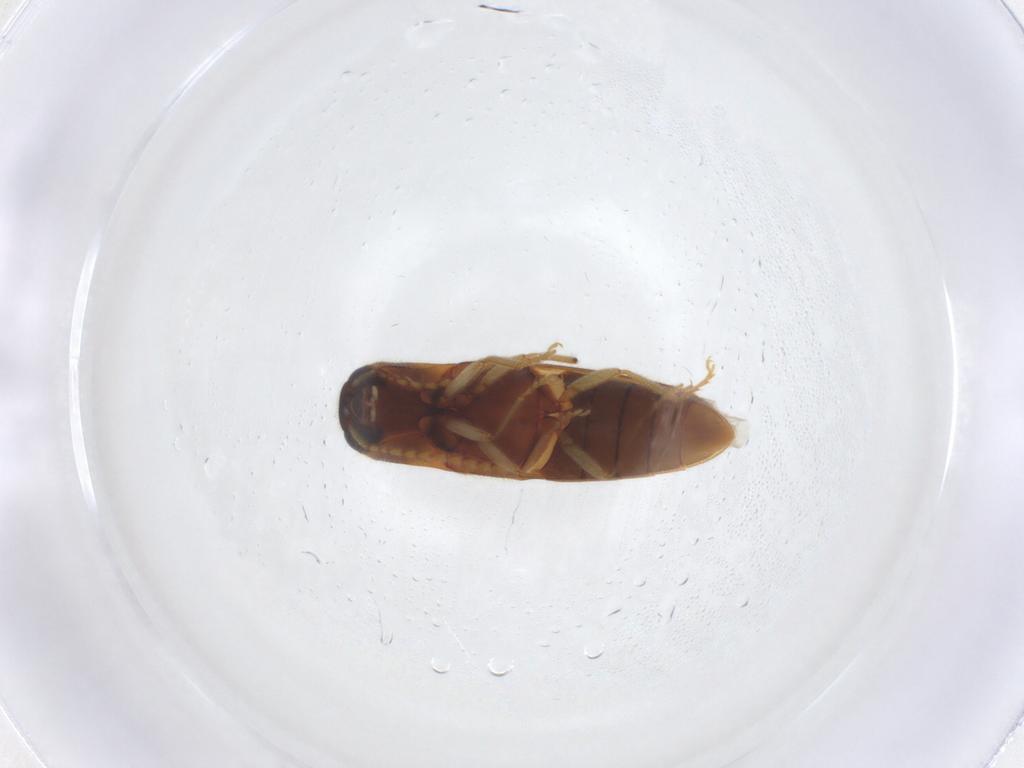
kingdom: Animalia
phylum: Arthropoda
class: Insecta
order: Coleoptera
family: Elateridae
